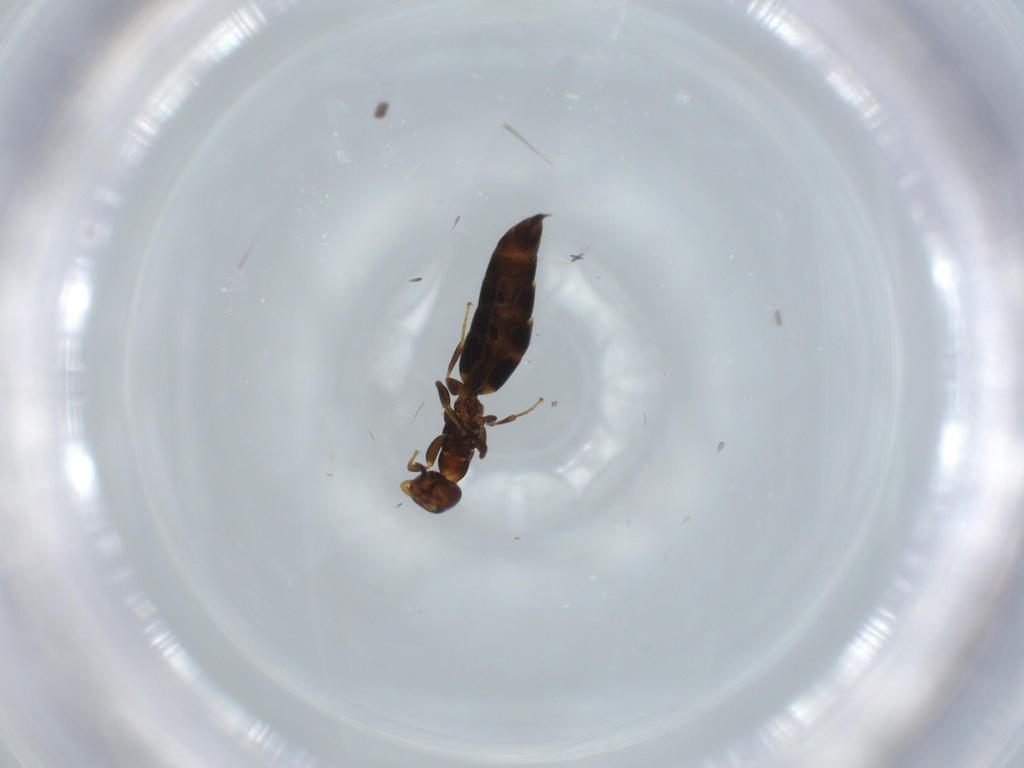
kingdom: Animalia
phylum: Arthropoda
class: Insecta
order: Hymenoptera
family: Bethylidae
